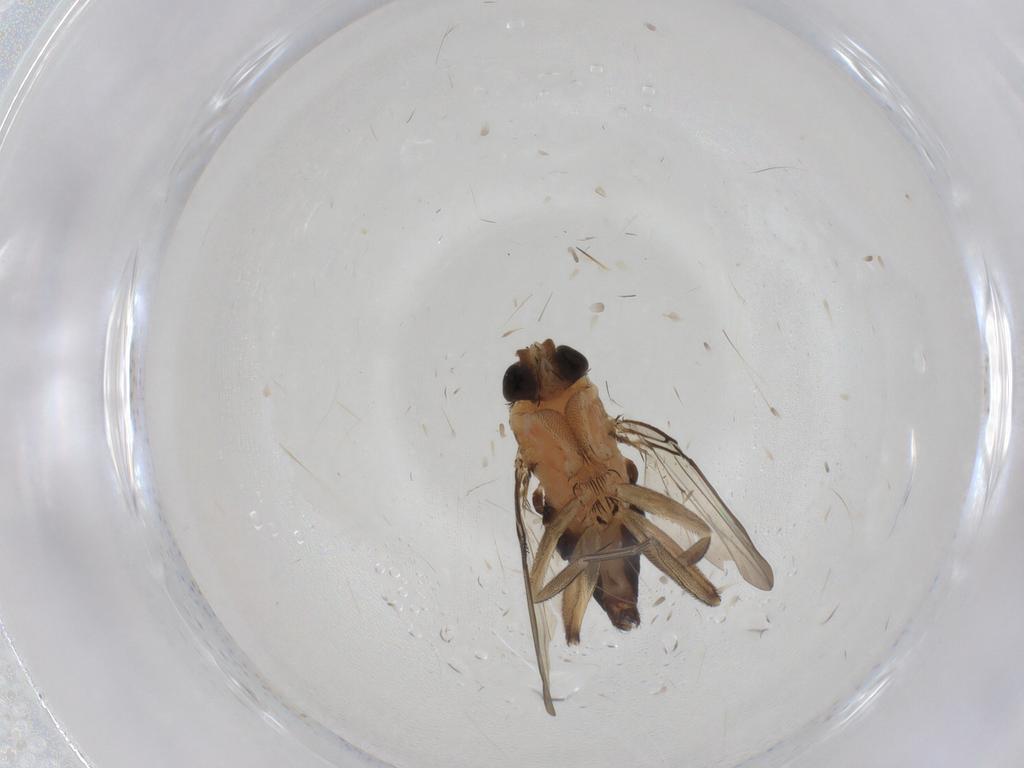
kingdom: Animalia
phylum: Arthropoda
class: Insecta
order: Diptera
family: Phoridae
